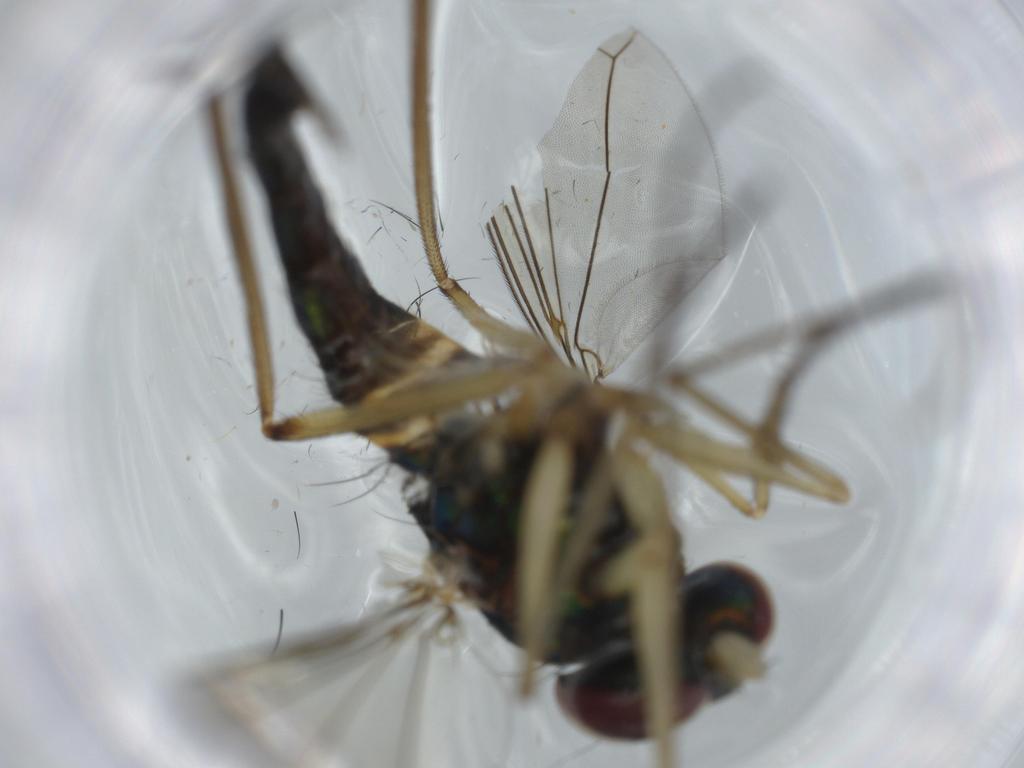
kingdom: Animalia
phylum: Arthropoda
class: Insecta
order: Diptera
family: Dolichopodidae
